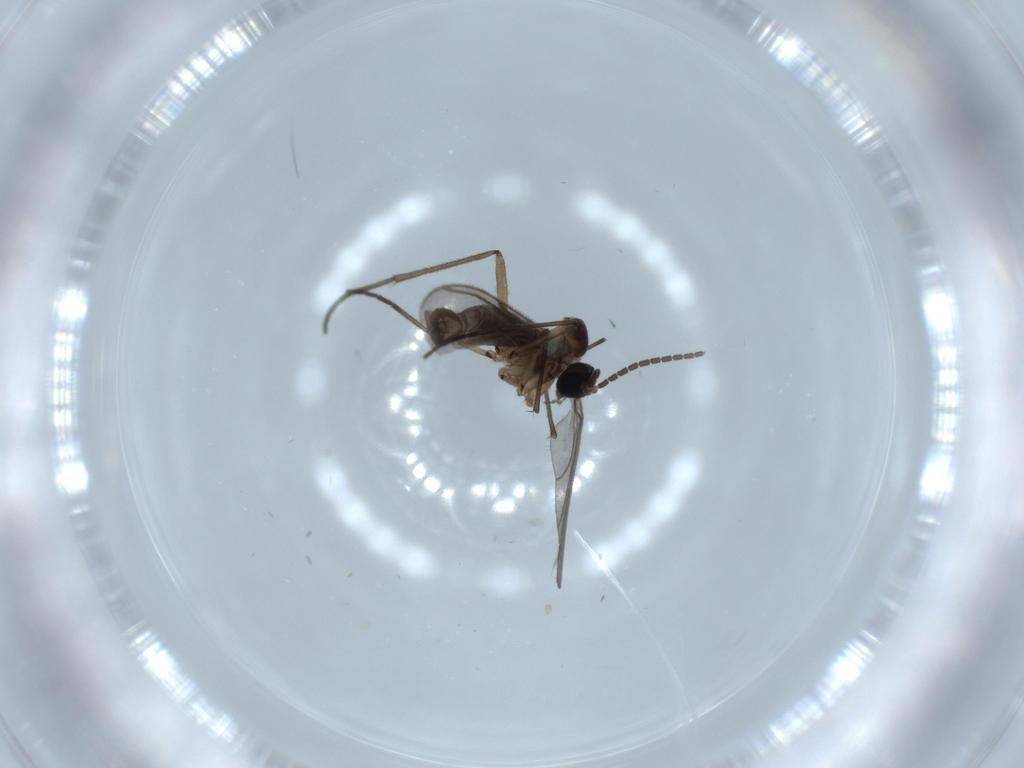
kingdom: Animalia
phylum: Arthropoda
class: Insecta
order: Diptera
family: Sciaridae
